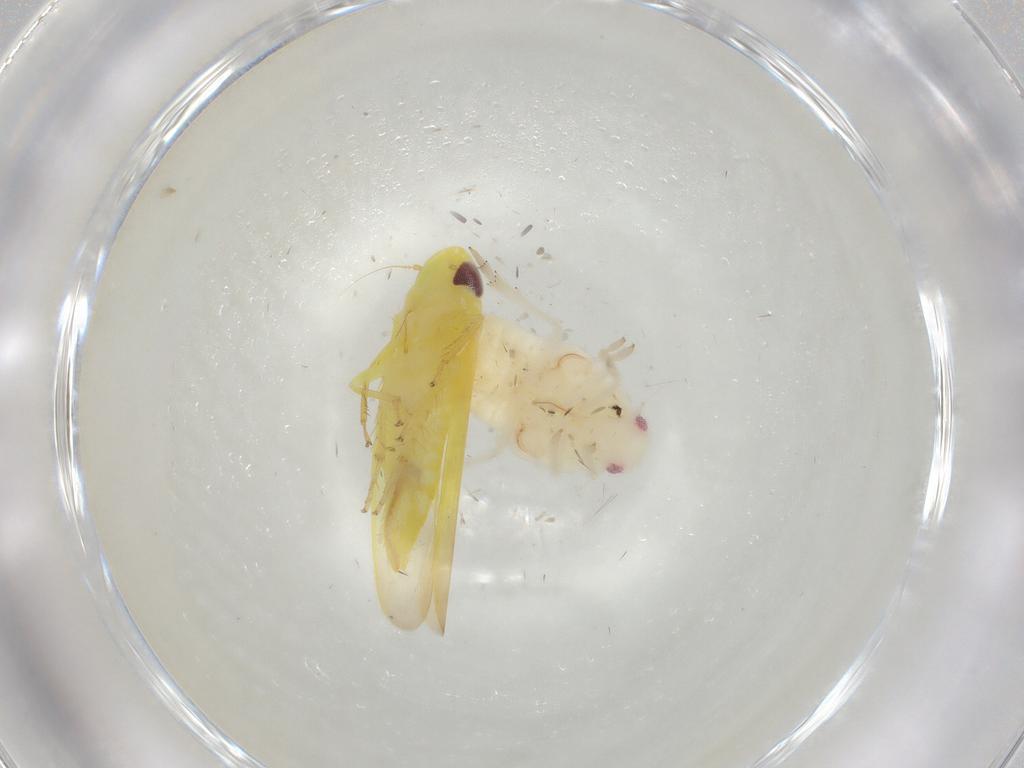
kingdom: Animalia
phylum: Arthropoda
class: Insecta
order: Hemiptera
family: Flatidae
